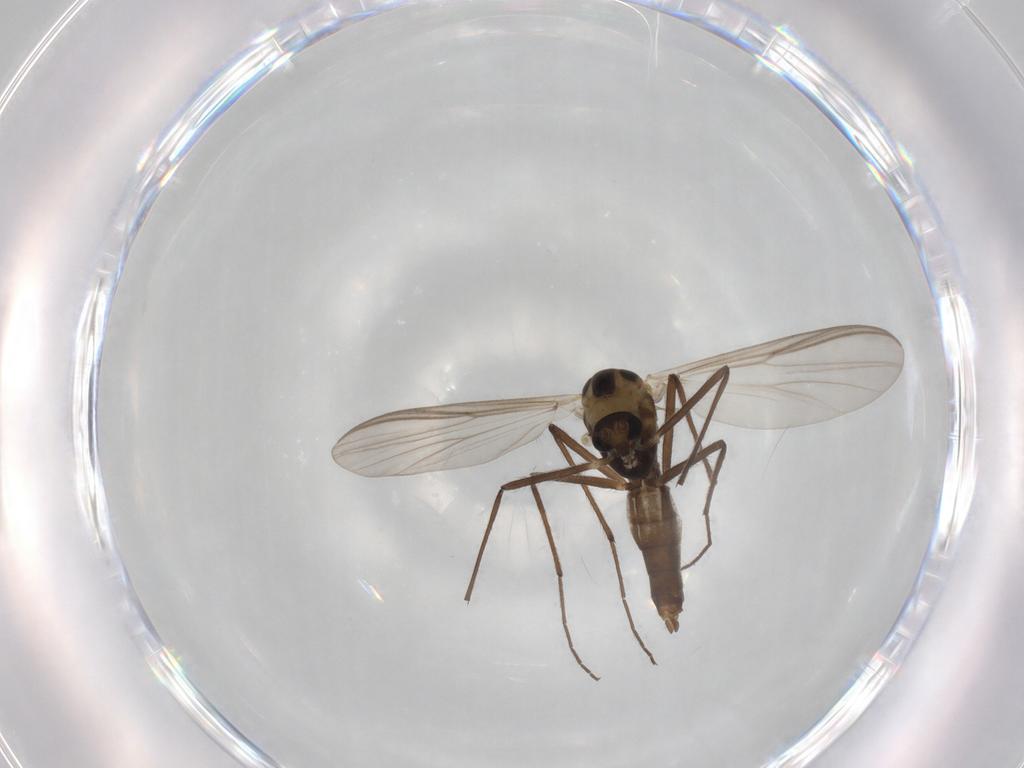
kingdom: Animalia
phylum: Arthropoda
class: Insecta
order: Diptera
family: Chironomidae
